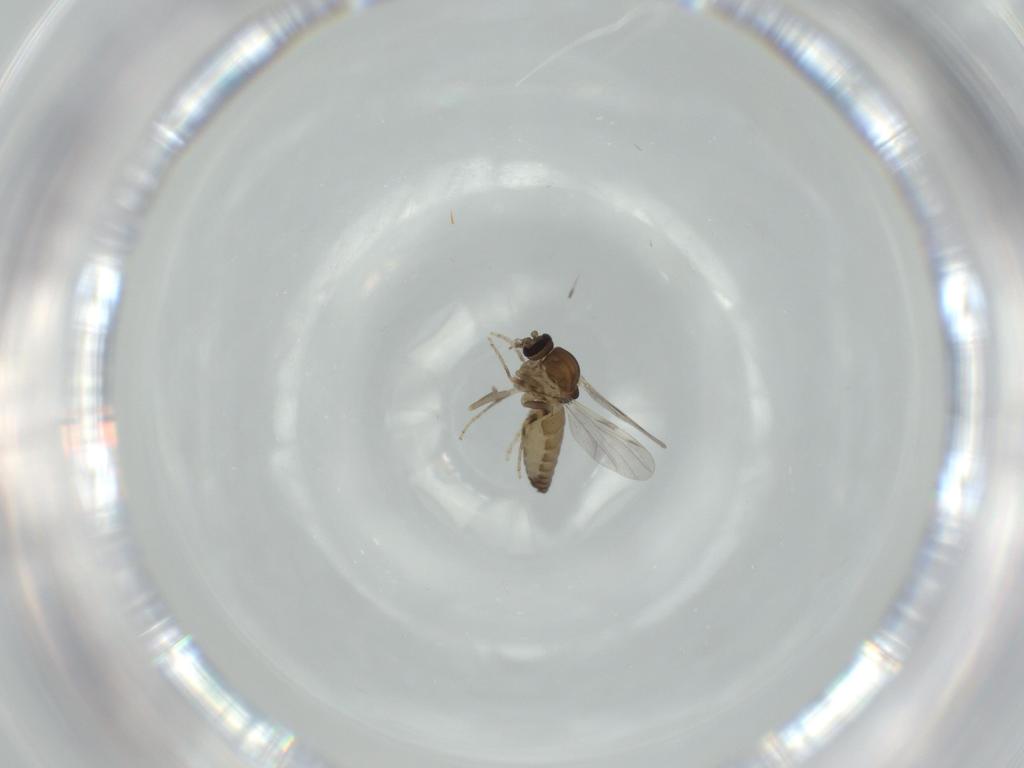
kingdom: Animalia
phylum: Arthropoda
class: Insecta
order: Diptera
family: Ceratopogonidae
